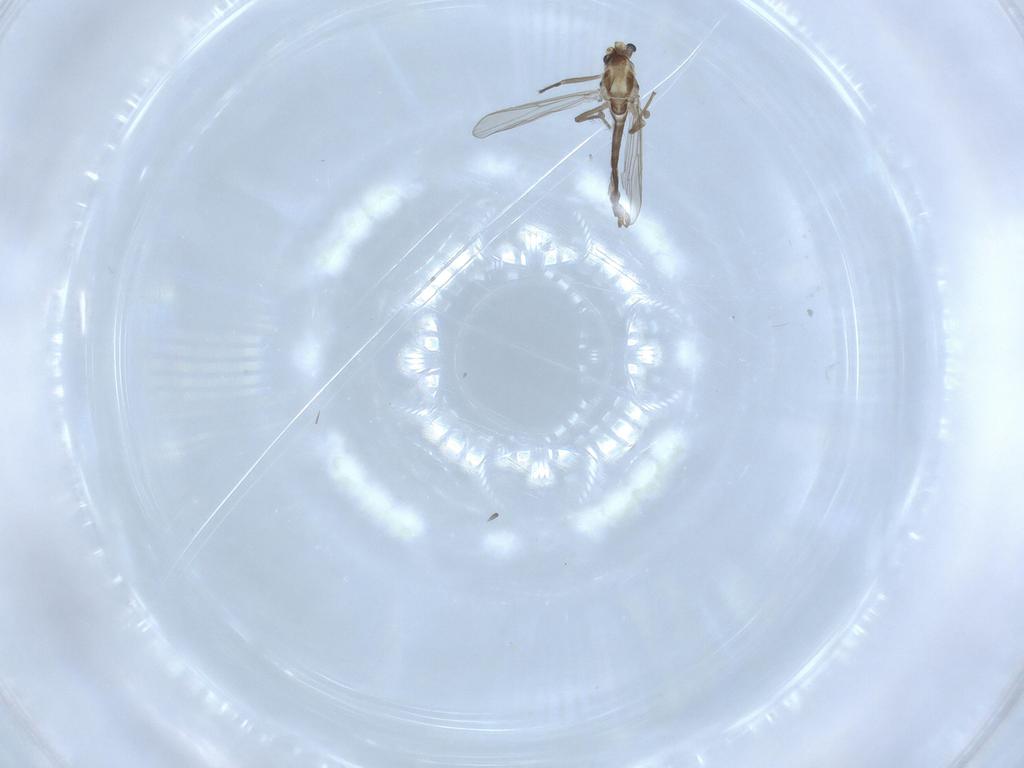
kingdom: Animalia
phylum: Arthropoda
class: Insecta
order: Diptera
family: Chironomidae
